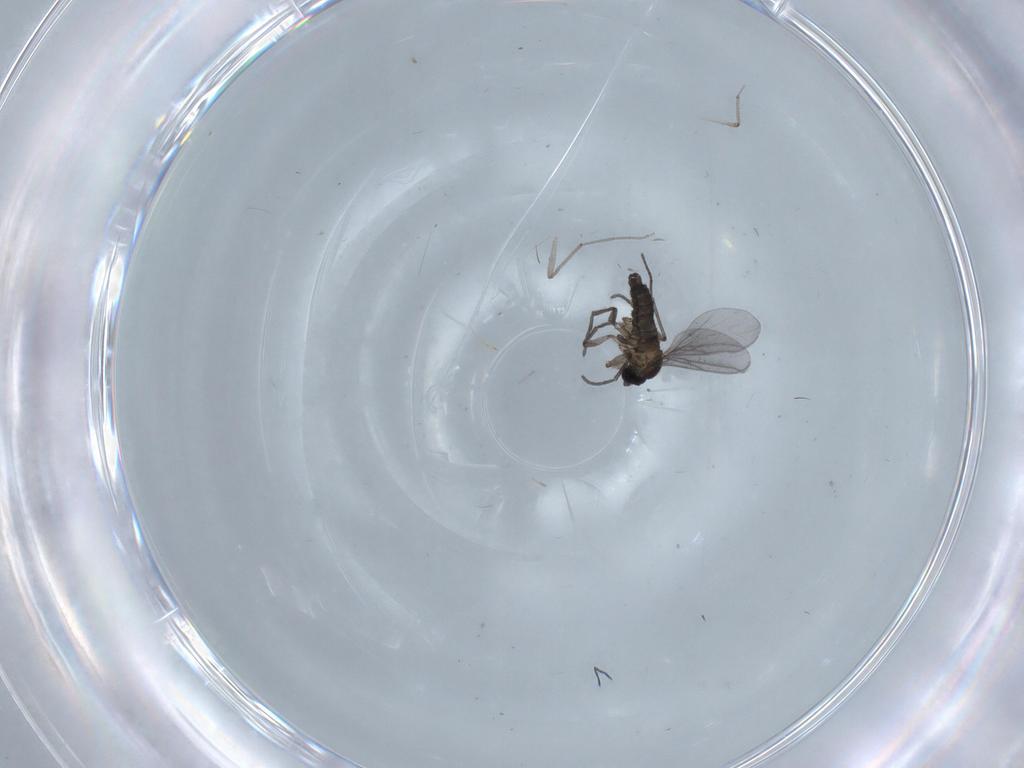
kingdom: Animalia
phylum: Arthropoda
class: Insecta
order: Diptera
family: Chironomidae
